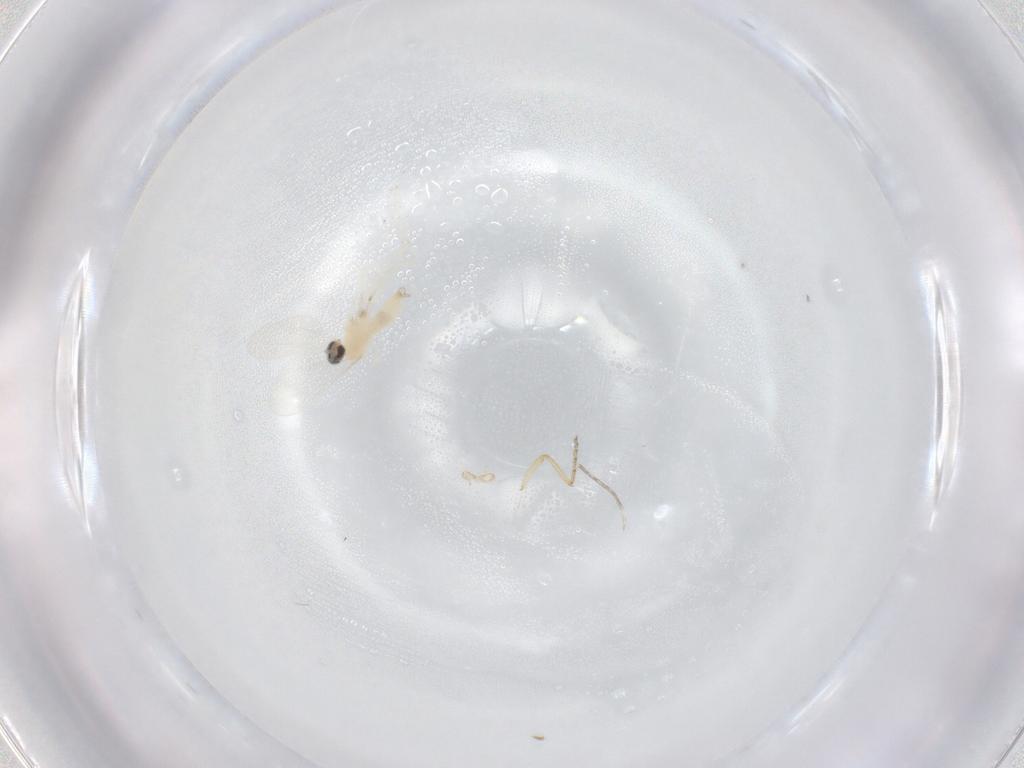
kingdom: Animalia
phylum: Arthropoda
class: Insecta
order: Diptera
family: Cecidomyiidae
